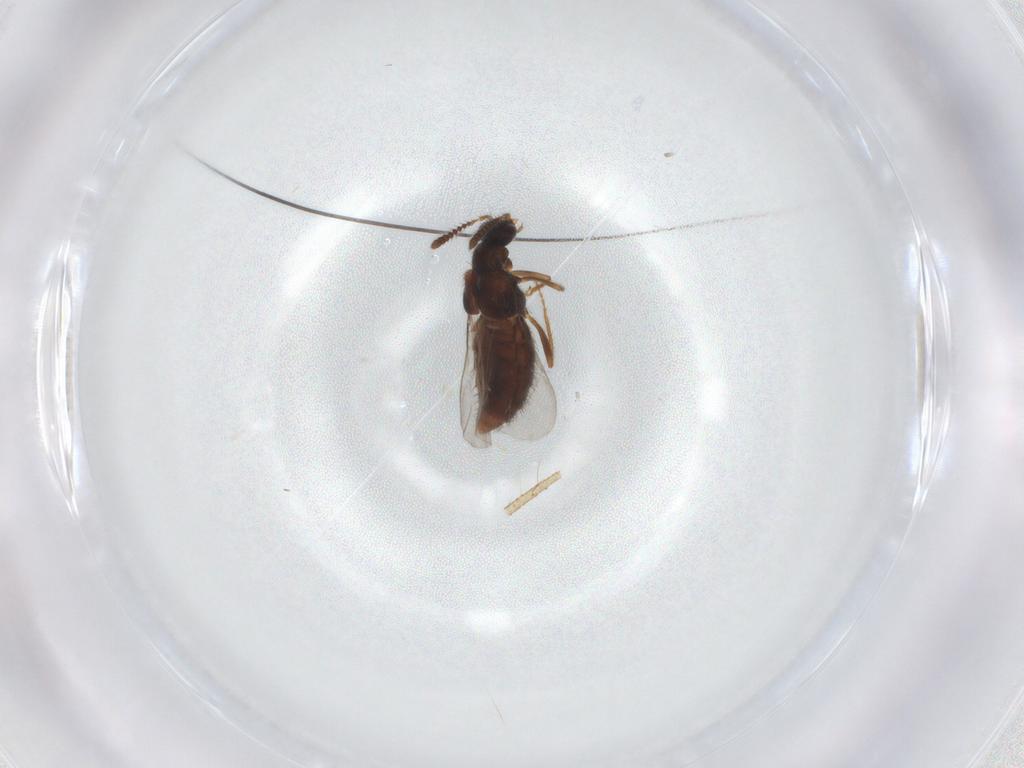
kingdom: Animalia
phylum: Arthropoda
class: Insecta
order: Coleoptera
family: Staphylinidae
